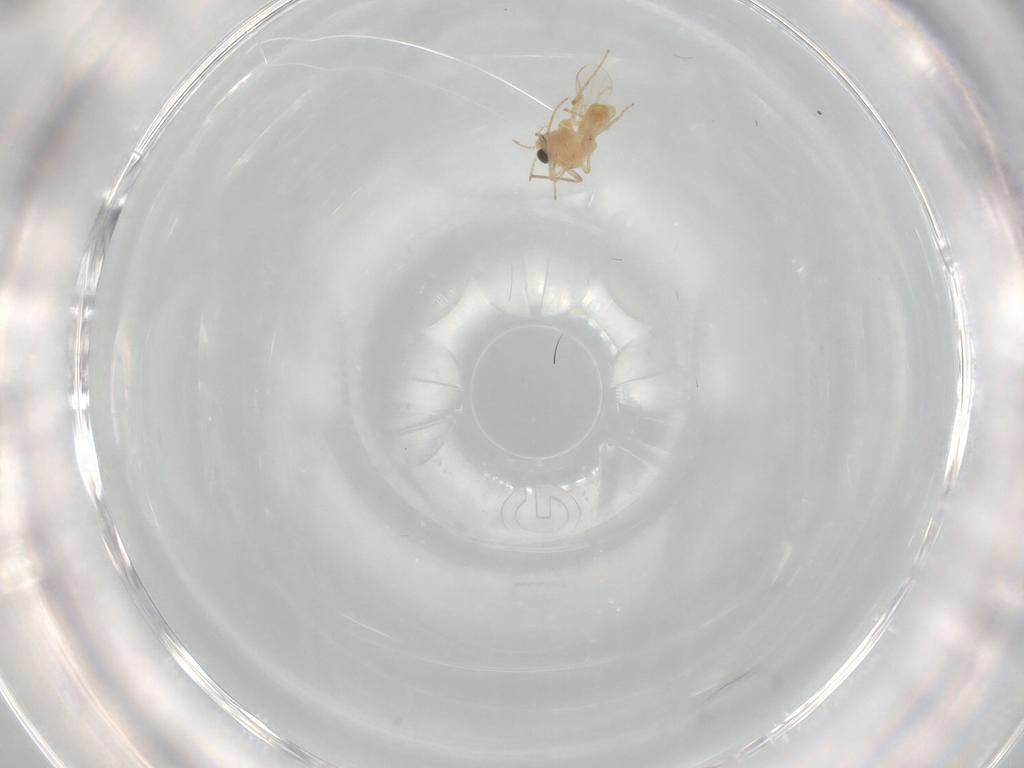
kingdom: Animalia
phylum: Arthropoda
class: Insecta
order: Diptera
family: Chironomidae
